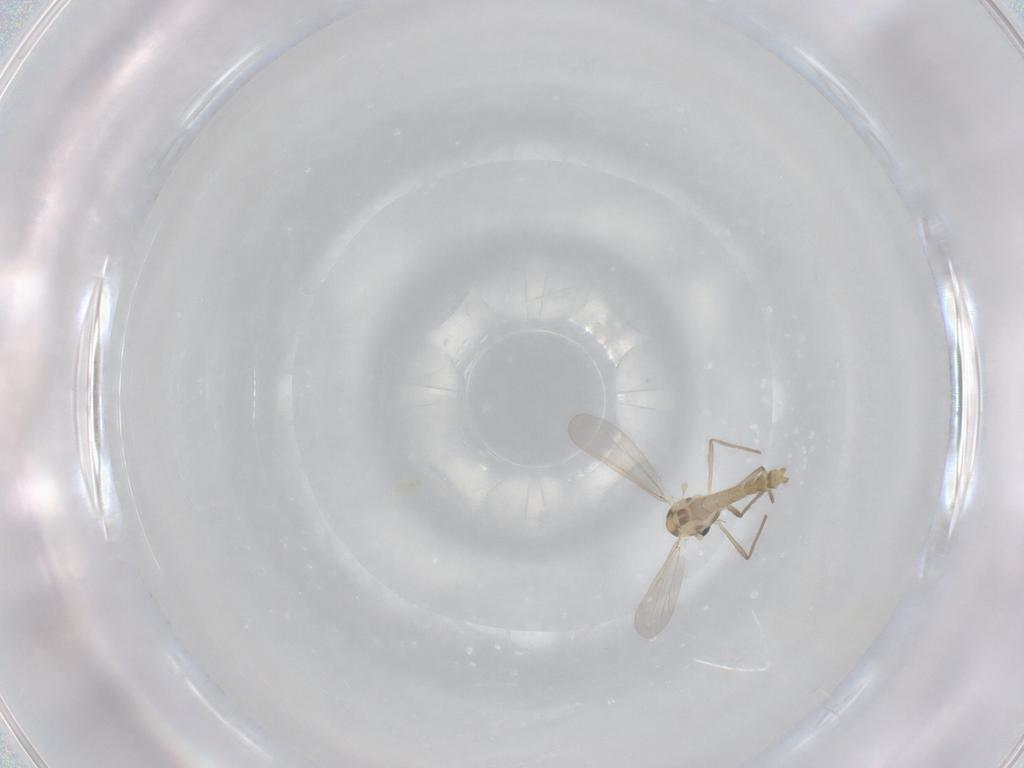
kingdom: Animalia
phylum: Arthropoda
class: Insecta
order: Diptera
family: Chironomidae
